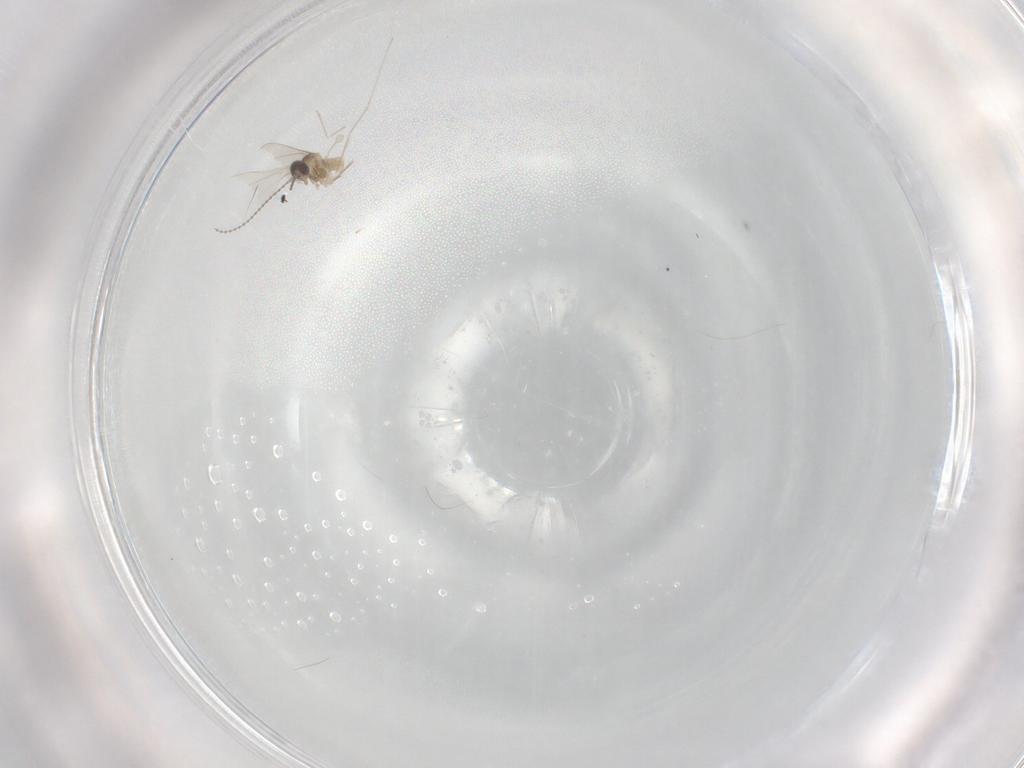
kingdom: Animalia
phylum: Arthropoda
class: Insecta
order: Diptera
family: Cecidomyiidae
